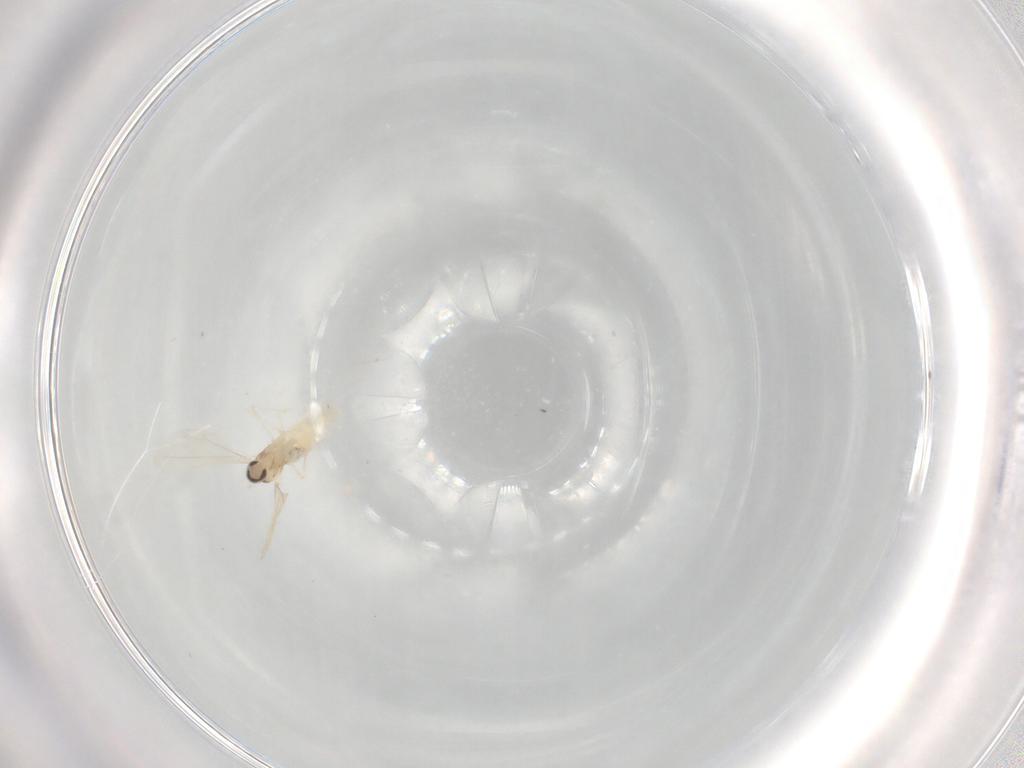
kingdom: Animalia
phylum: Arthropoda
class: Insecta
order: Diptera
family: Cecidomyiidae
